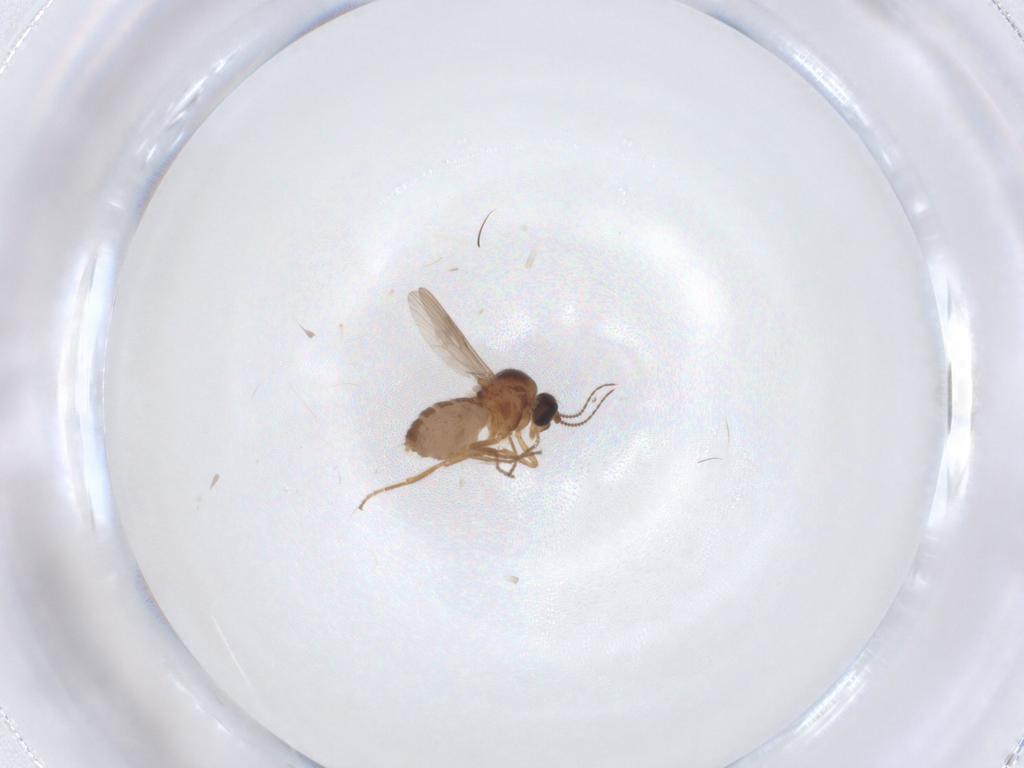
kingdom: Animalia
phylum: Arthropoda
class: Insecta
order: Diptera
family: Ceratopogonidae
